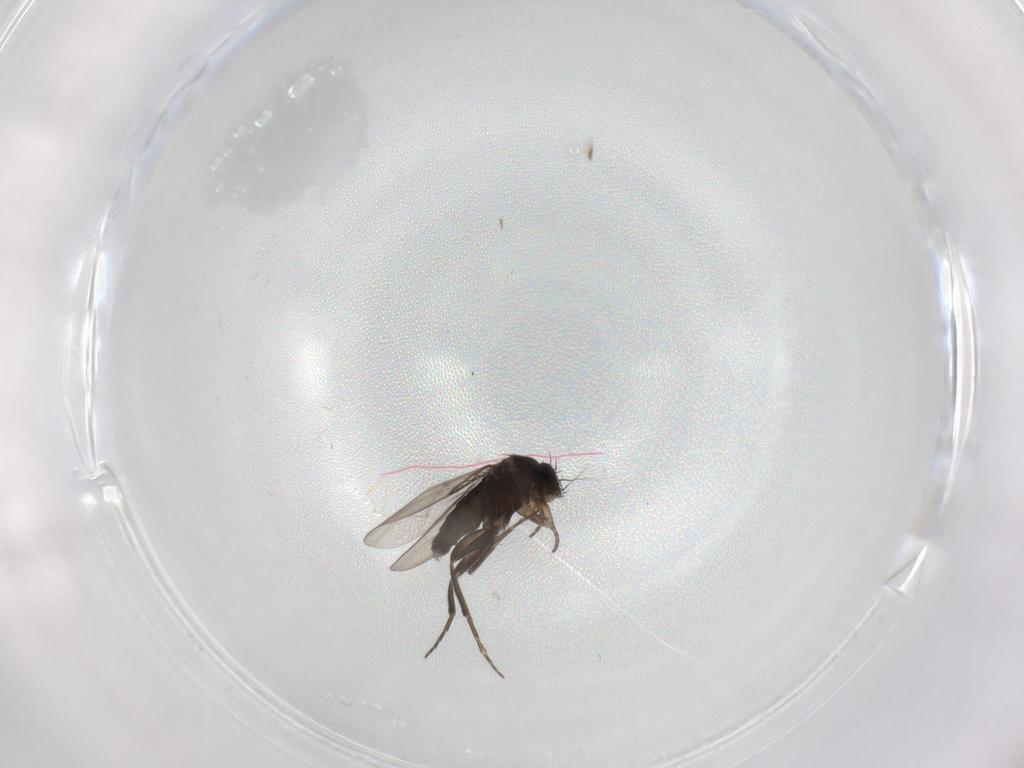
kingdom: Animalia
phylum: Arthropoda
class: Insecta
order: Diptera
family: Phoridae
